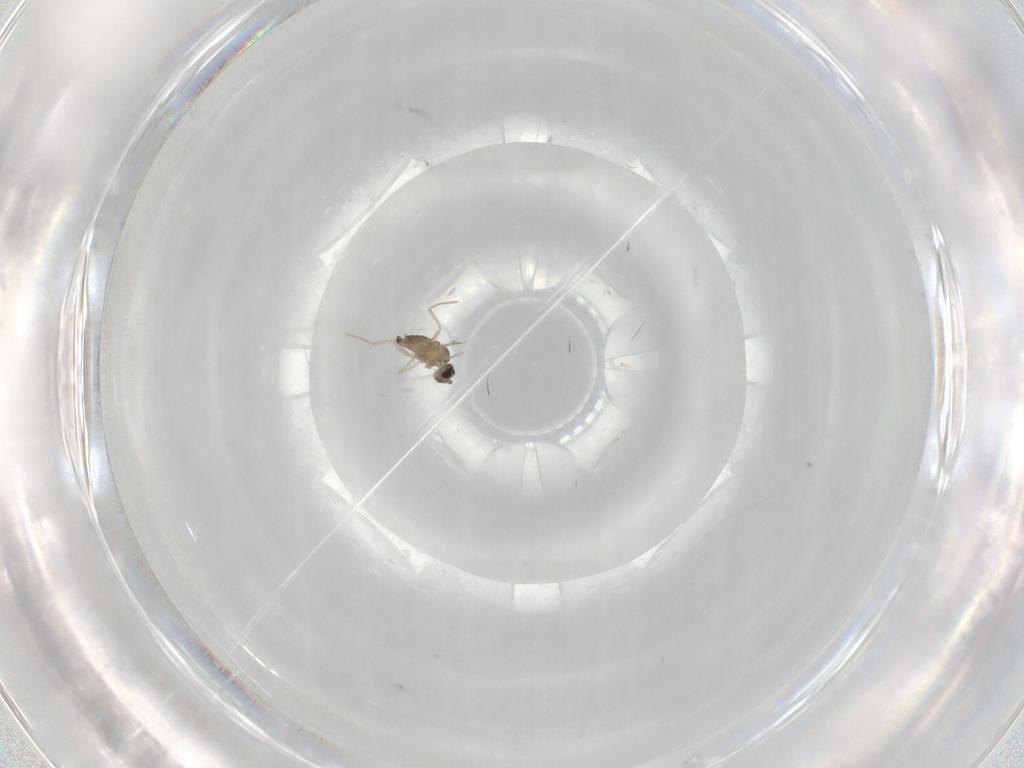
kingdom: Animalia
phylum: Arthropoda
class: Insecta
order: Diptera
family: Cecidomyiidae
